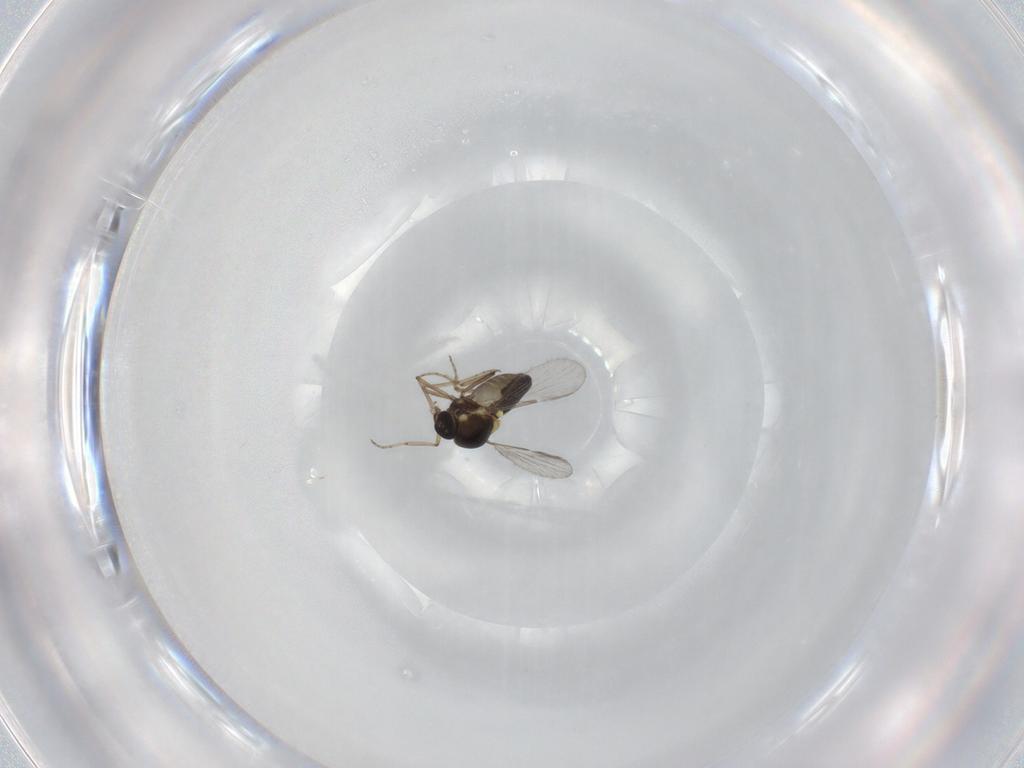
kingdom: Animalia
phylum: Arthropoda
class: Insecta
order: Diptera
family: Ceratopogonidae
